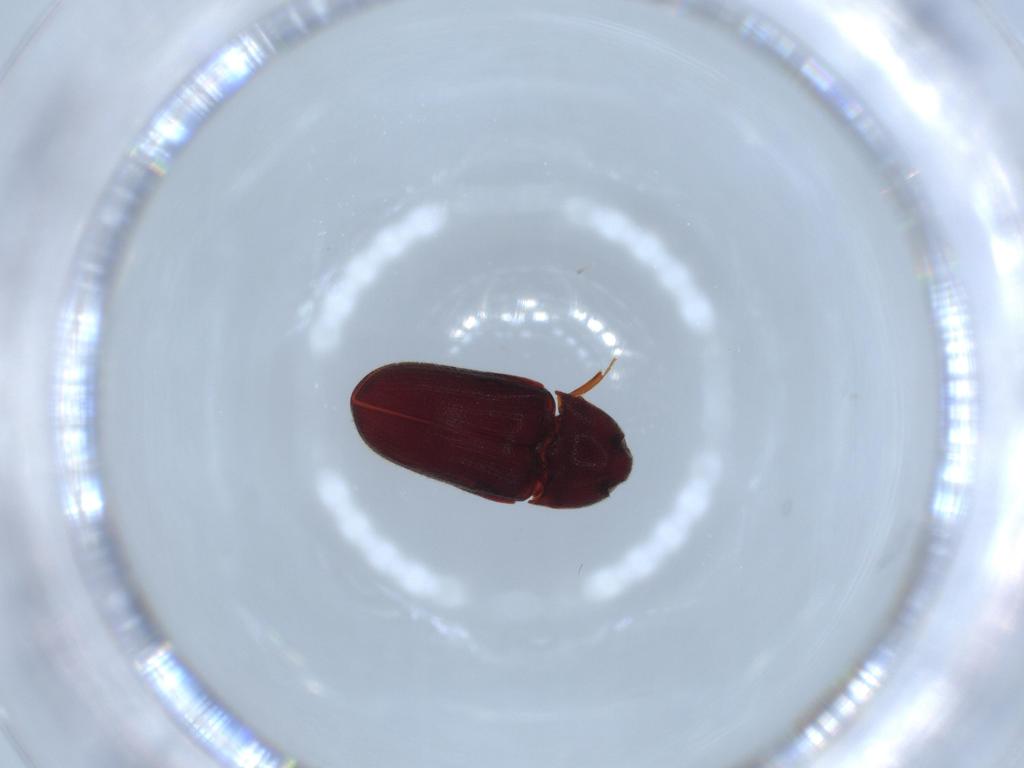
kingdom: Animalia
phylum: Arthropoda
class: Insecta
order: Coleoptera
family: Throscidae
